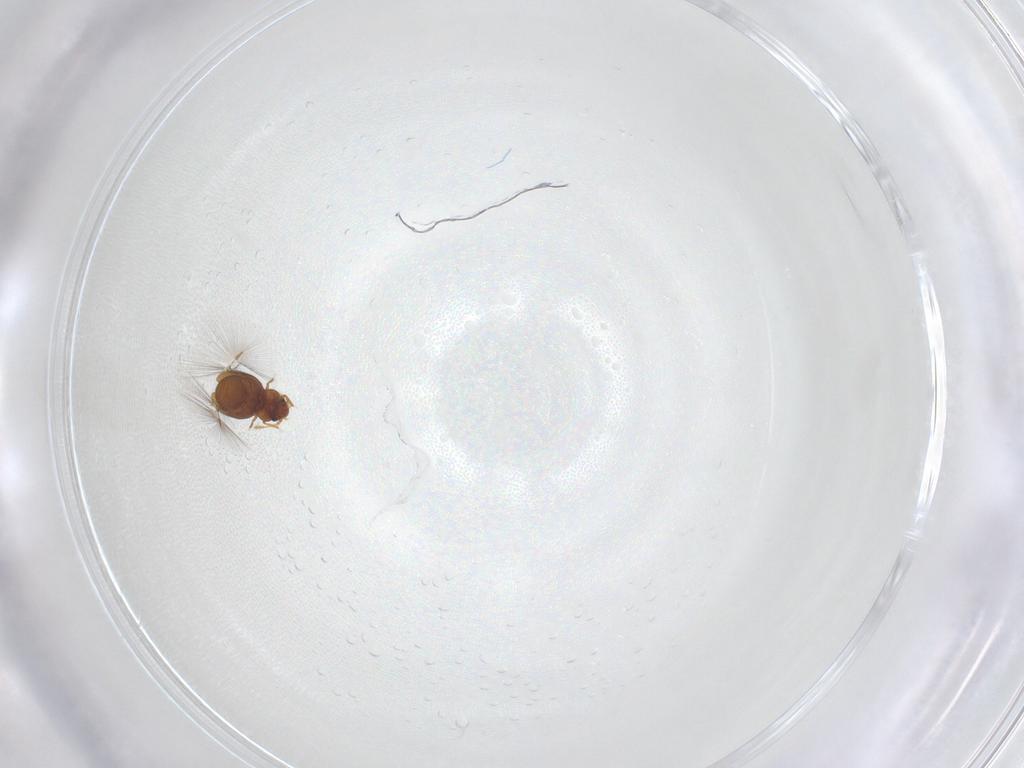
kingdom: Animalia
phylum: Arthropoda
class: Insecta
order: Coleoptera
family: Ptiliidae
